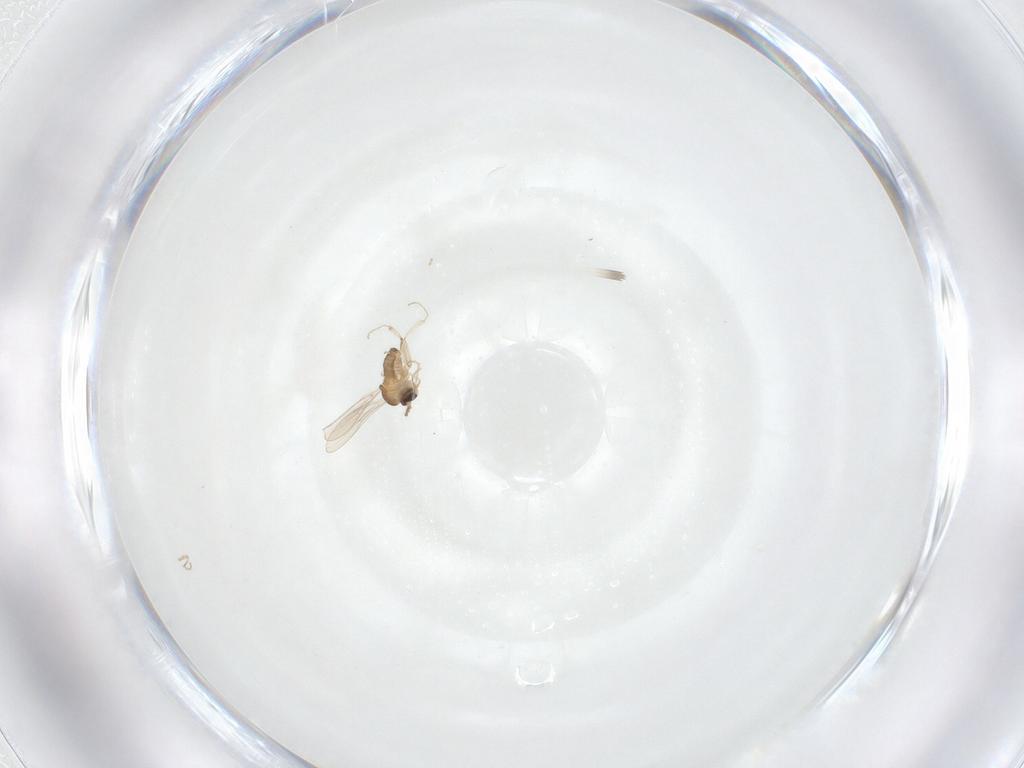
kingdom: Animalia
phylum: Arthropoda
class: Insecta
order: Diptera
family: Cecidomyiidae
